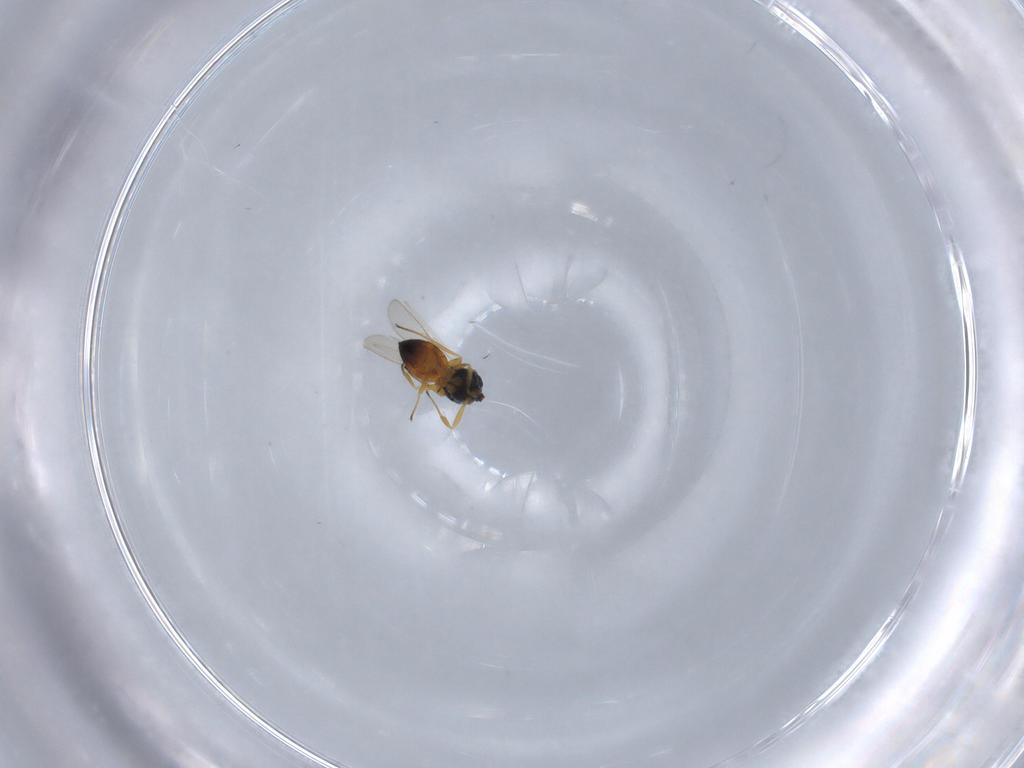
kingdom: Animalia
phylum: Arthropoda
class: Insecta
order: Hymenoptera
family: Scelionidae
